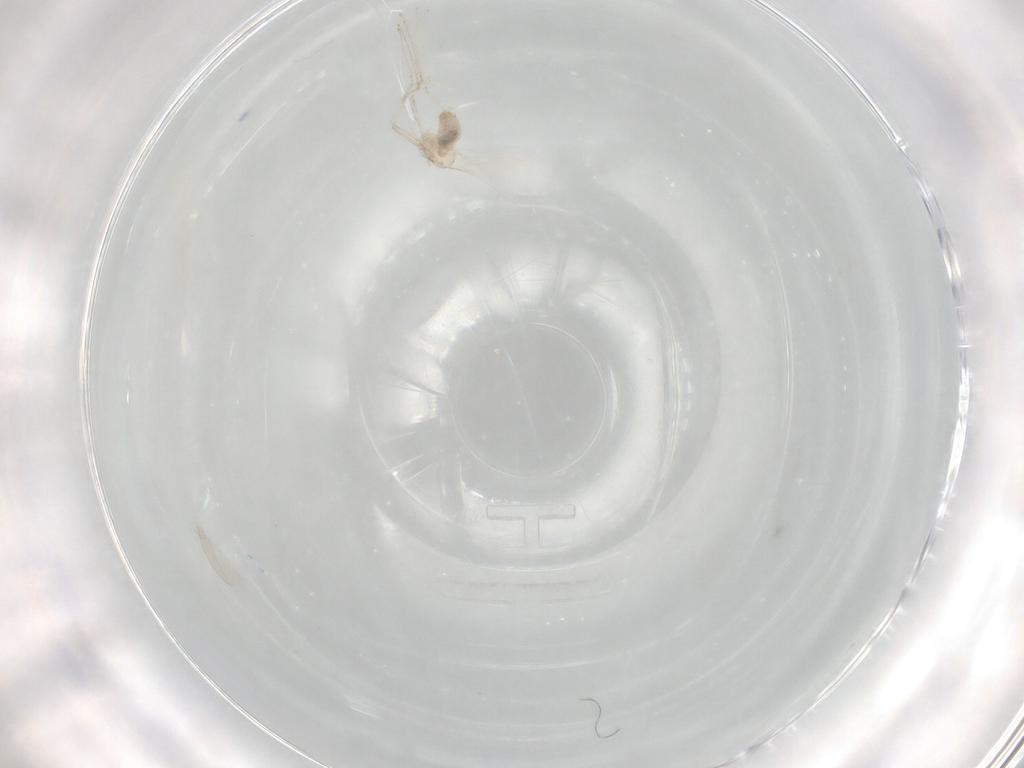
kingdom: Animalia
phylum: Arthropoda
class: Insecta
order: Diptera
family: Cecidomyiidae
